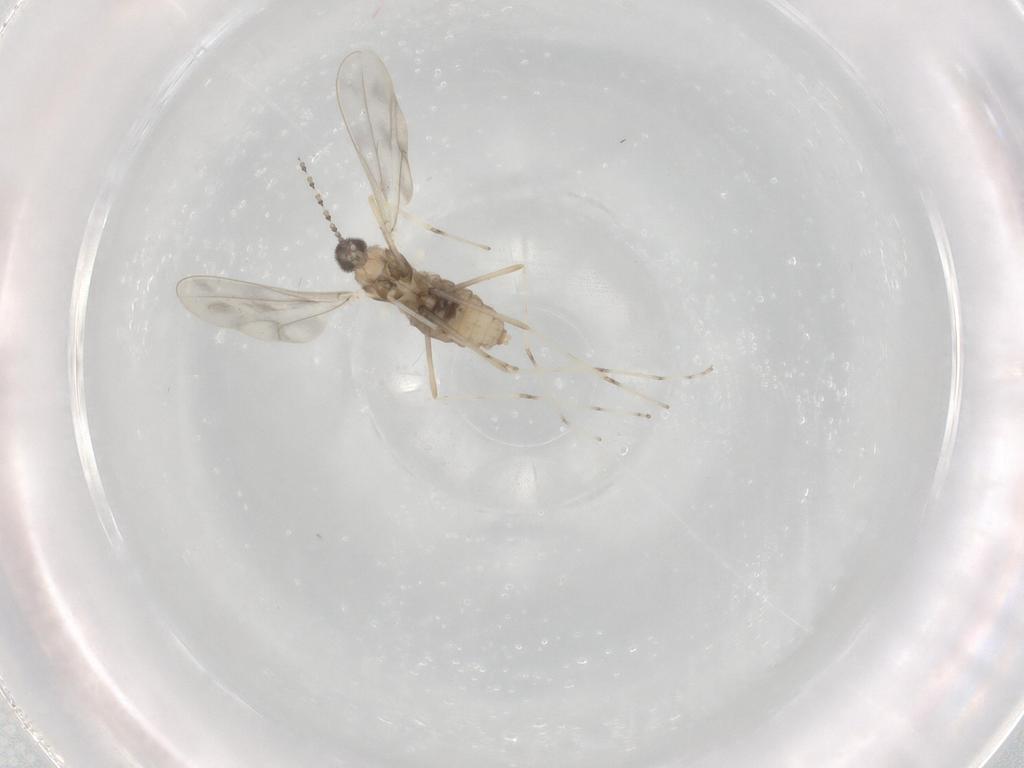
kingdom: Animalia
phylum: Arthropoda
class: Insecta
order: Diptera
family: Cecidomyiidae
